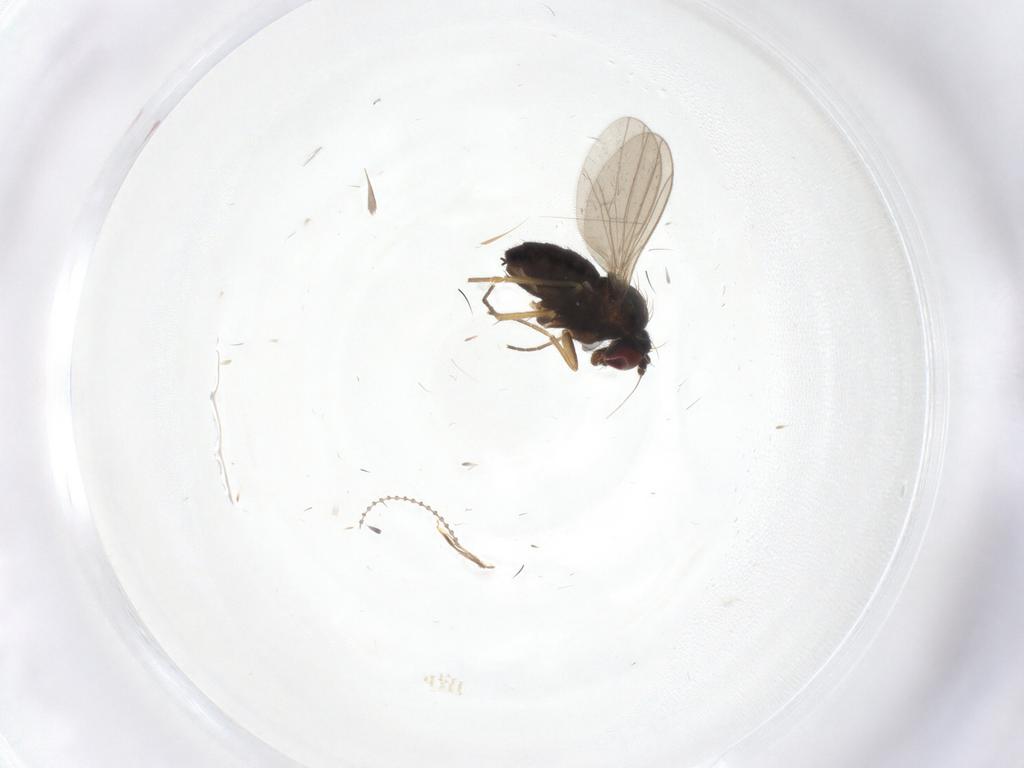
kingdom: Animalia
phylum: Arthropoda
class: Insecta
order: Diptera
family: Dolichopodidae
